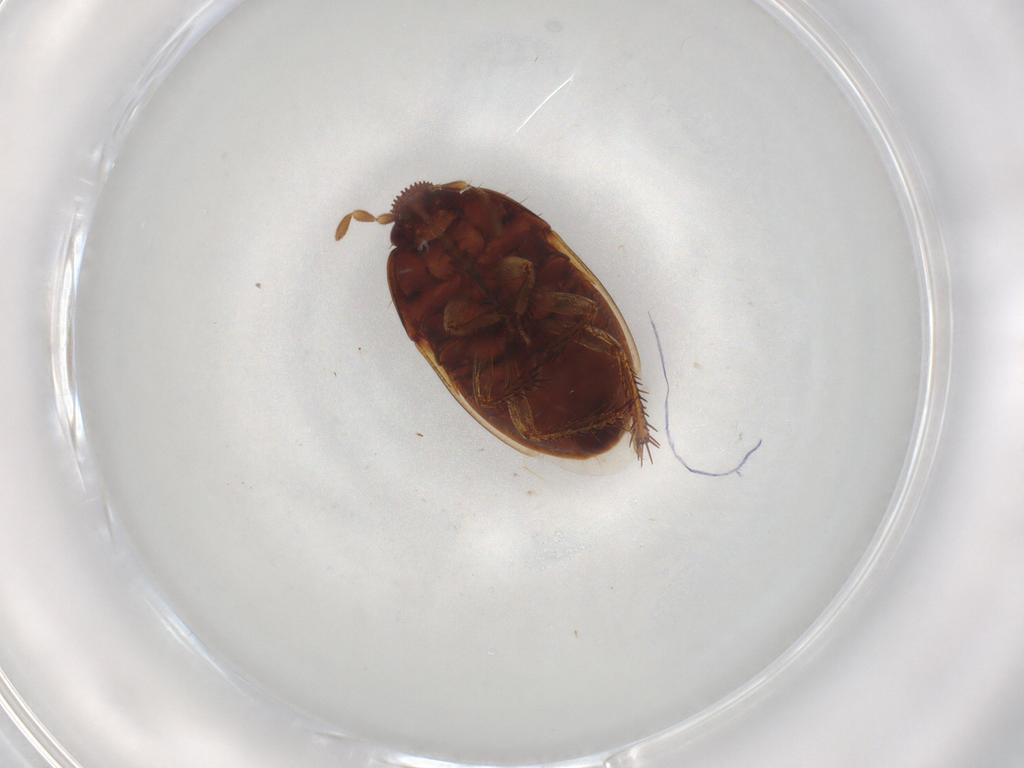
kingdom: Animalia
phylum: Arthropoda
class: Insecta
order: Hemiptera
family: Cydnidae
